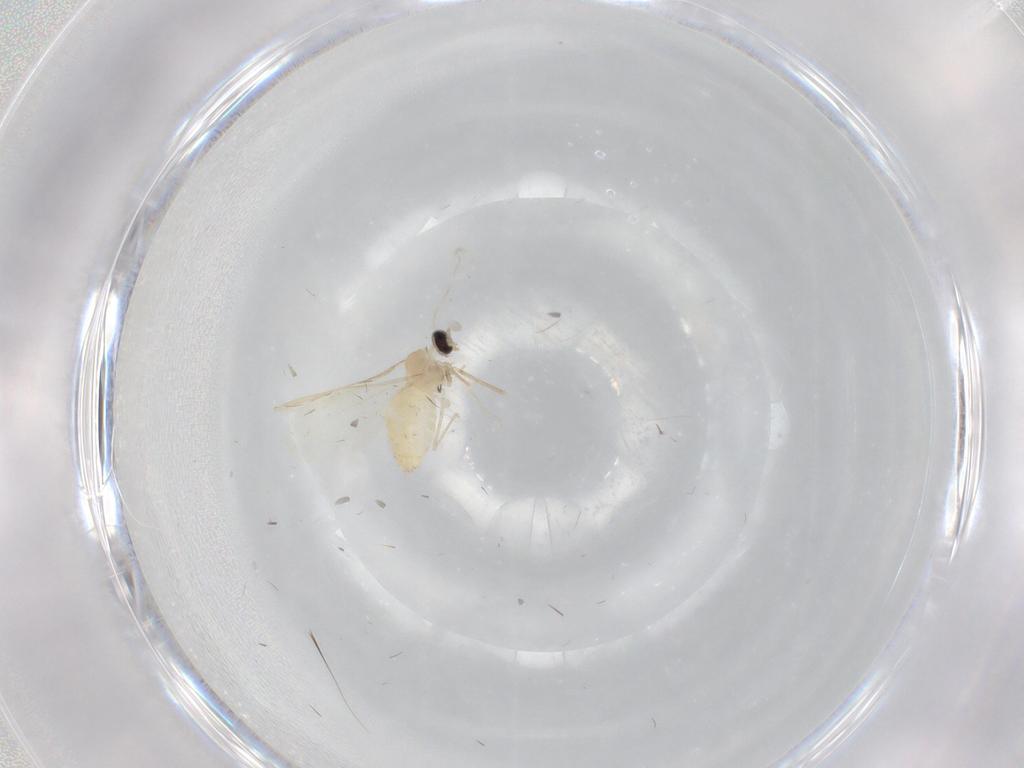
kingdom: Animalia
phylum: Arthropoda
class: Insecta
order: Diptera
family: Cecidomyiidae
